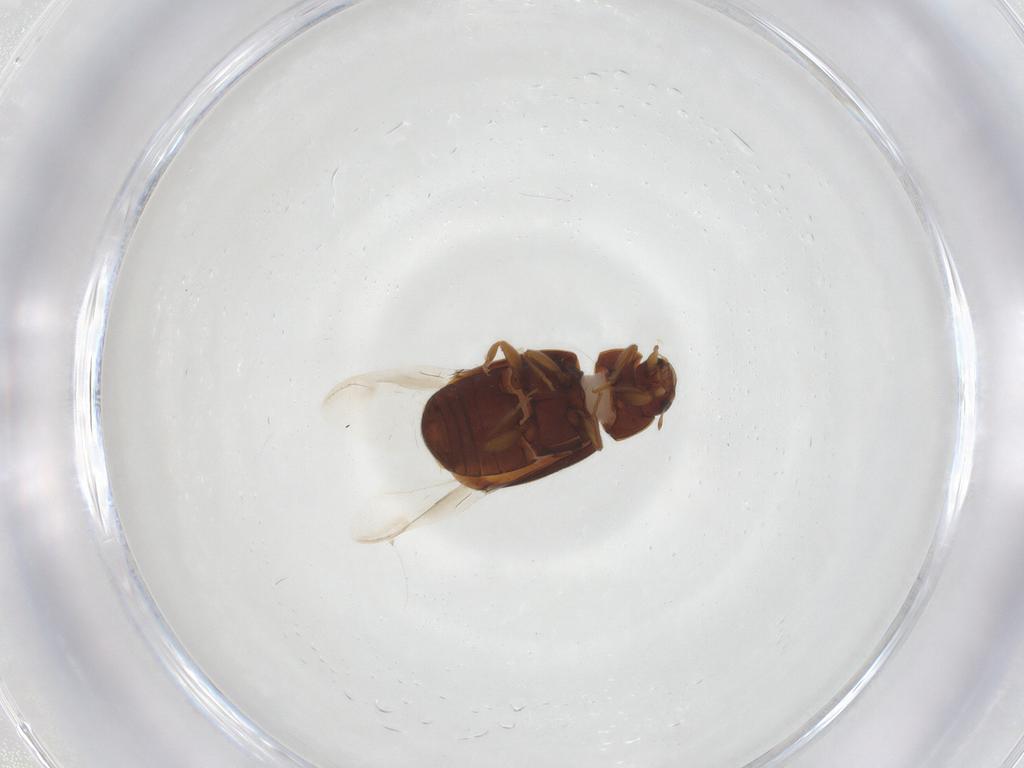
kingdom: Animalia
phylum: Arthropoda
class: Insecta
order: Coleoptera
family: Coccinellidae
